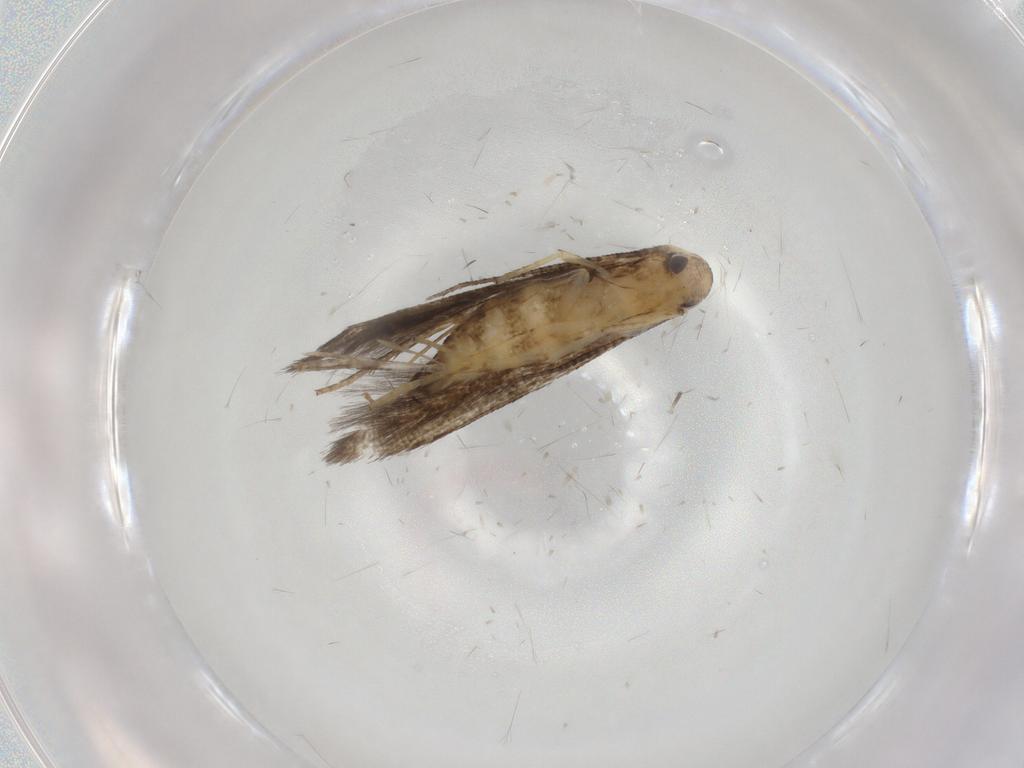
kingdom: Animalia
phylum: Arthropoda
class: Insecta
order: Lepidoptera
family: Stathmopodidae
